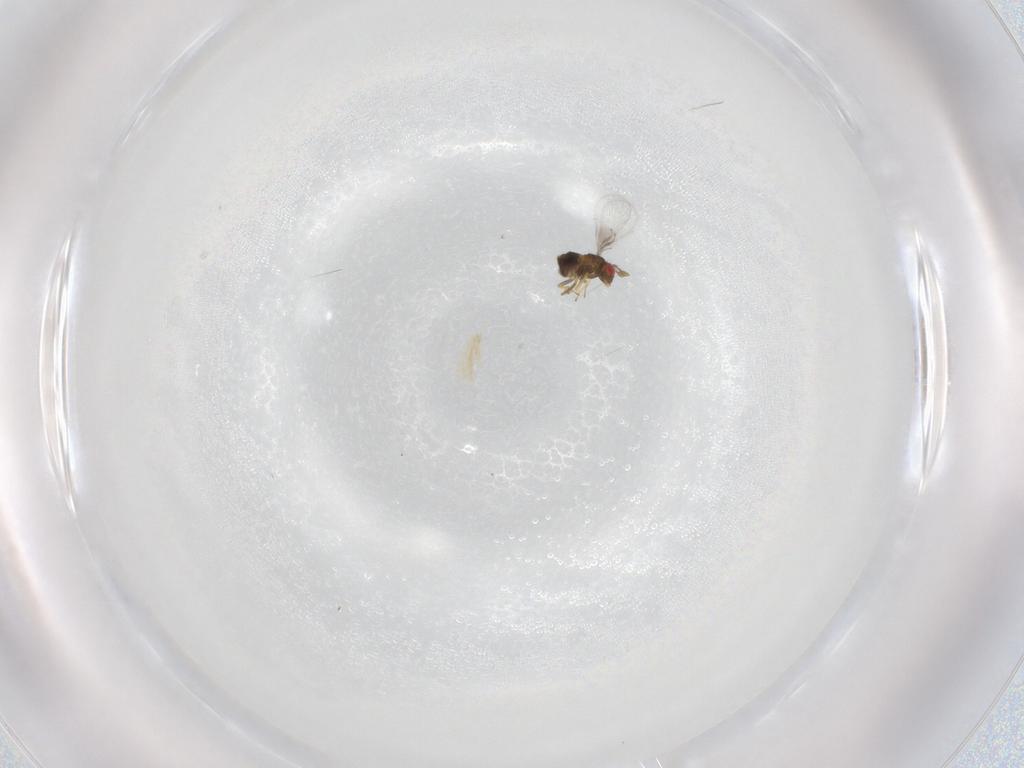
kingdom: Animalia
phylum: Arthropoda
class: Insecta
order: Hymenoptera
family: Trichogrammatidae
